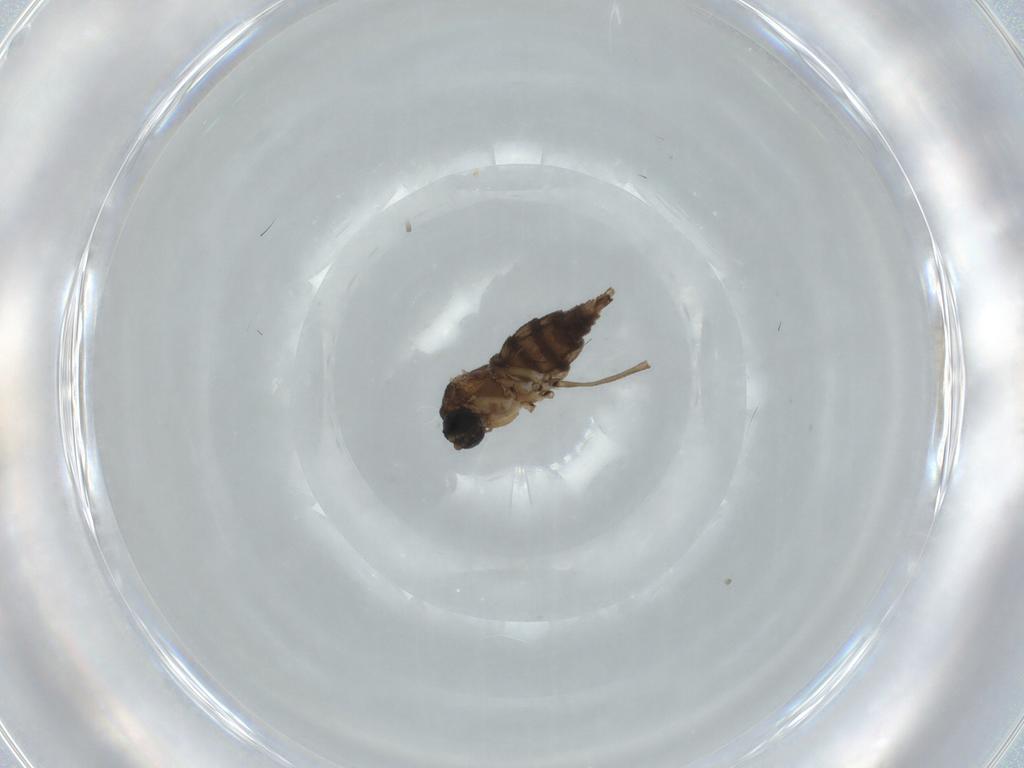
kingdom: Animalia
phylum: Arthropoda
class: Insecta
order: Diptera
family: Sciaridae
